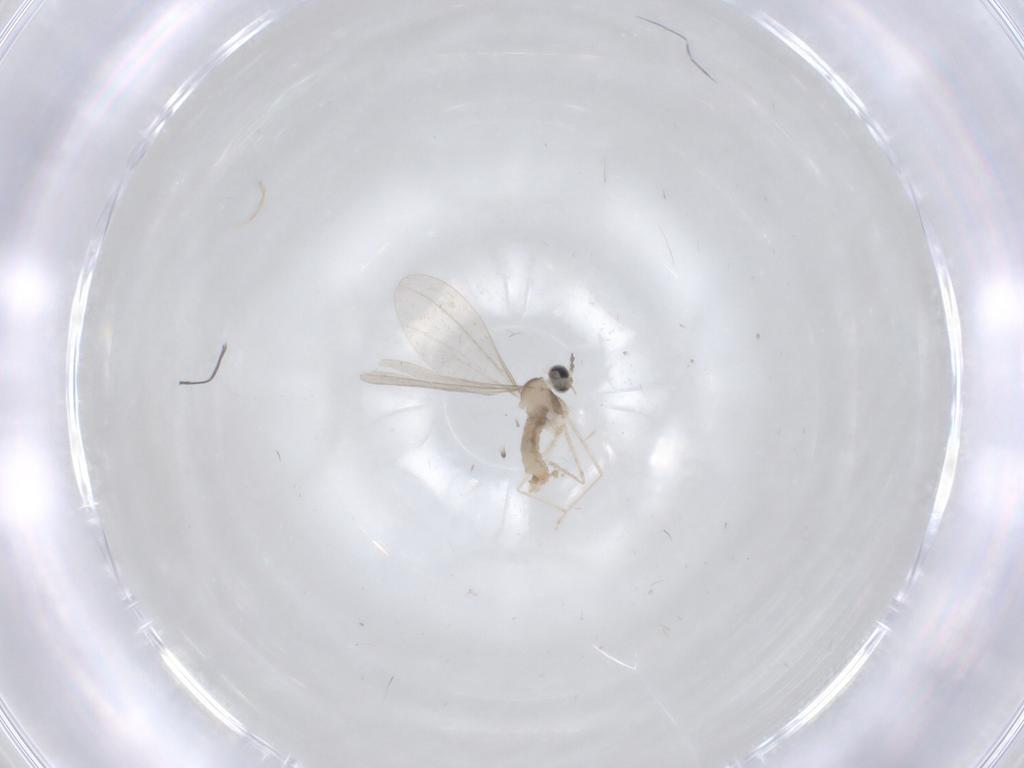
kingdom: Animalia
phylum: Arthropoda
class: Insecta
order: Diptera
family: Cecidomyiidae
